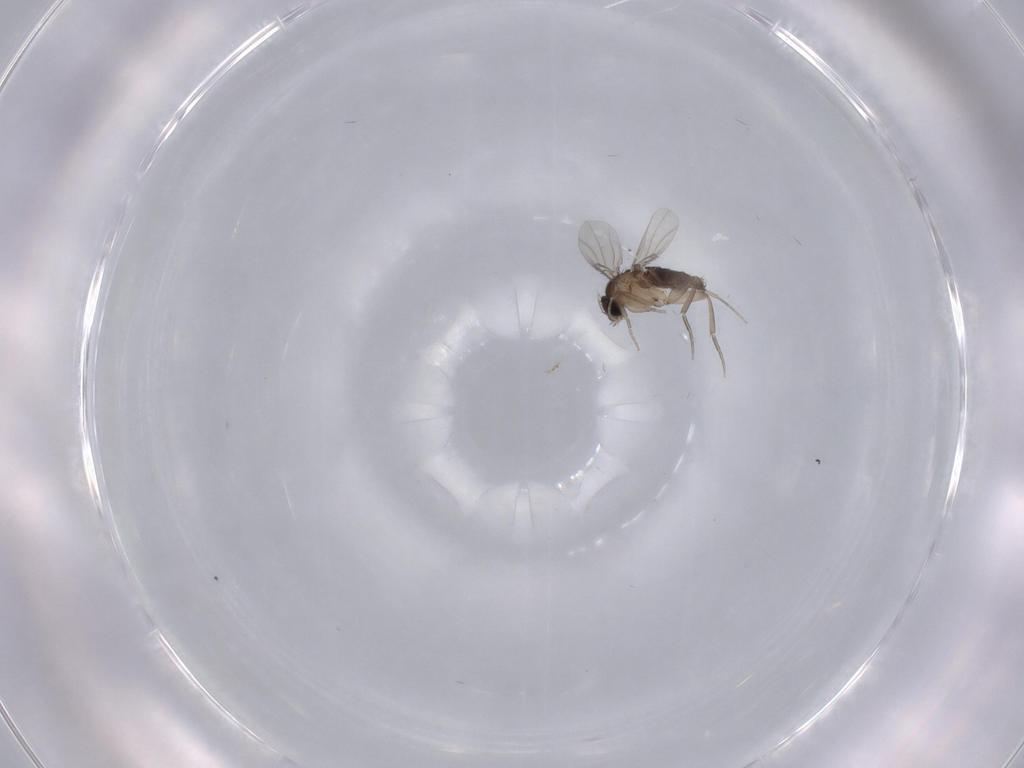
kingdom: Animalia
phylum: Arthropoda
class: Insecta
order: Diptera
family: Phoridae
